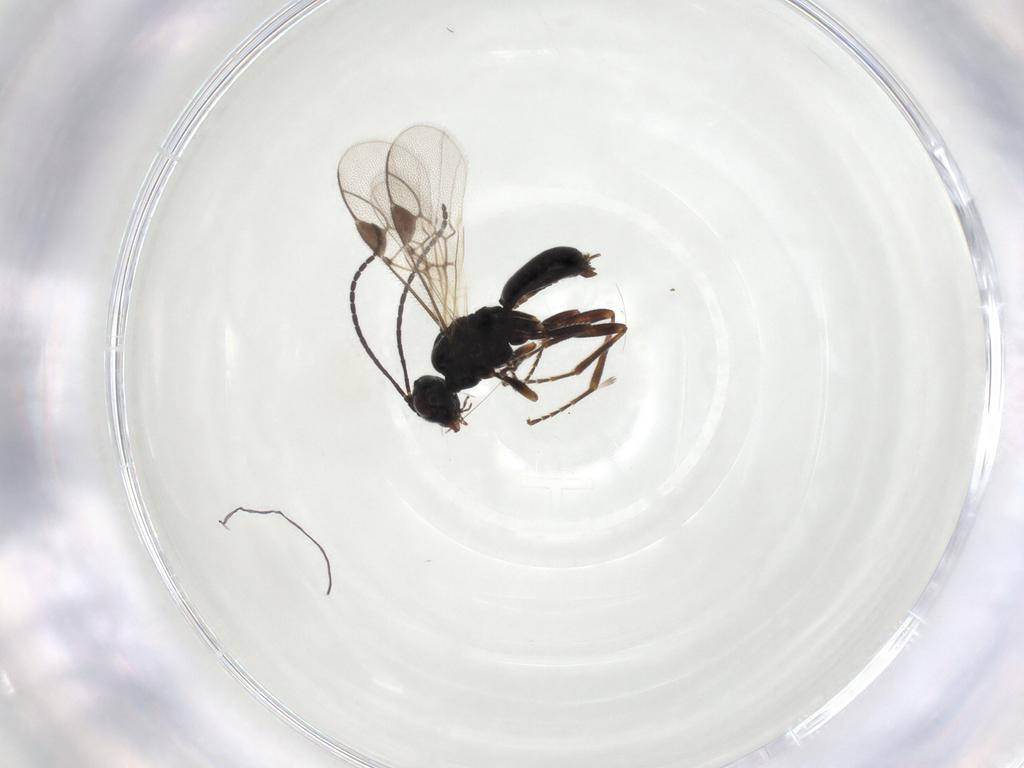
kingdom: Animalia
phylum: Arthropoda
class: Insecta
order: Hymenoptera
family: Braconidae
